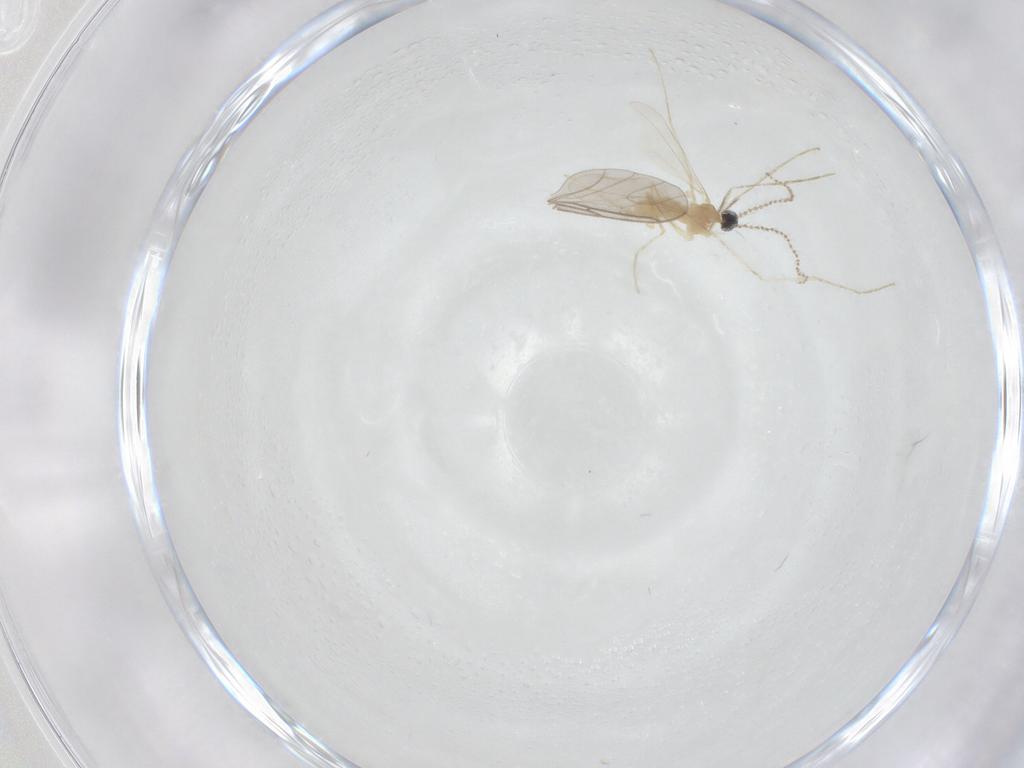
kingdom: Animalia
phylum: Arthropoda
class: Insecta
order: Diptera
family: Cecidomyiidae
